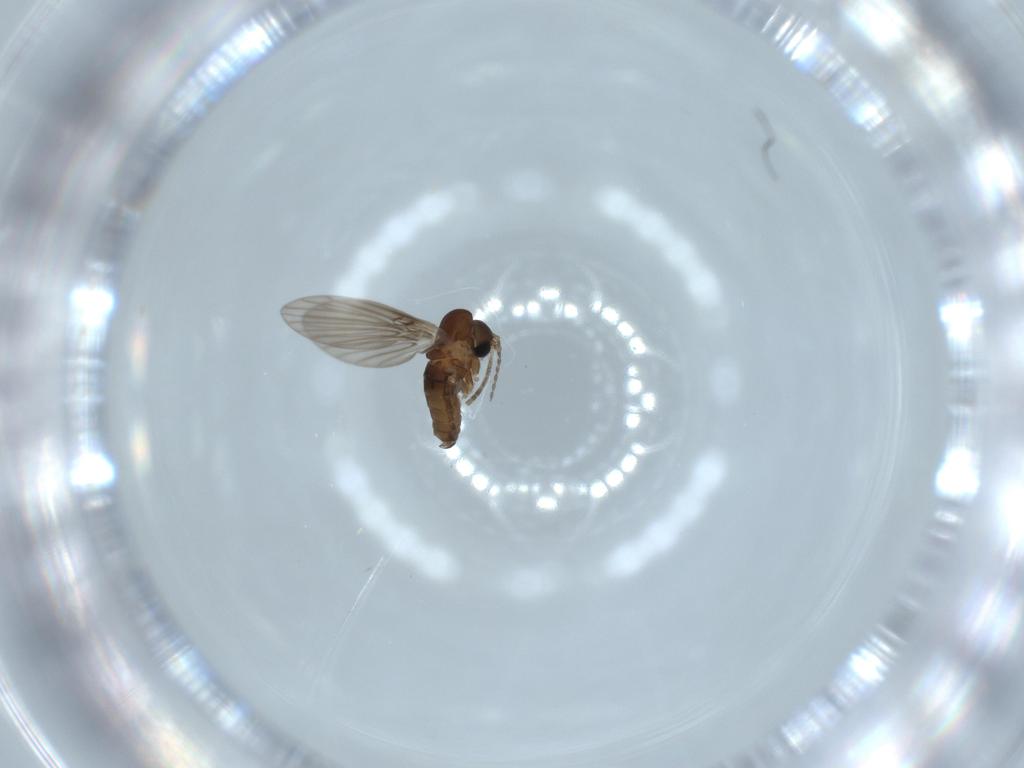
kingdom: Animalia
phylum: Arthropoda
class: Insecta
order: Diptera
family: Psychodidae
